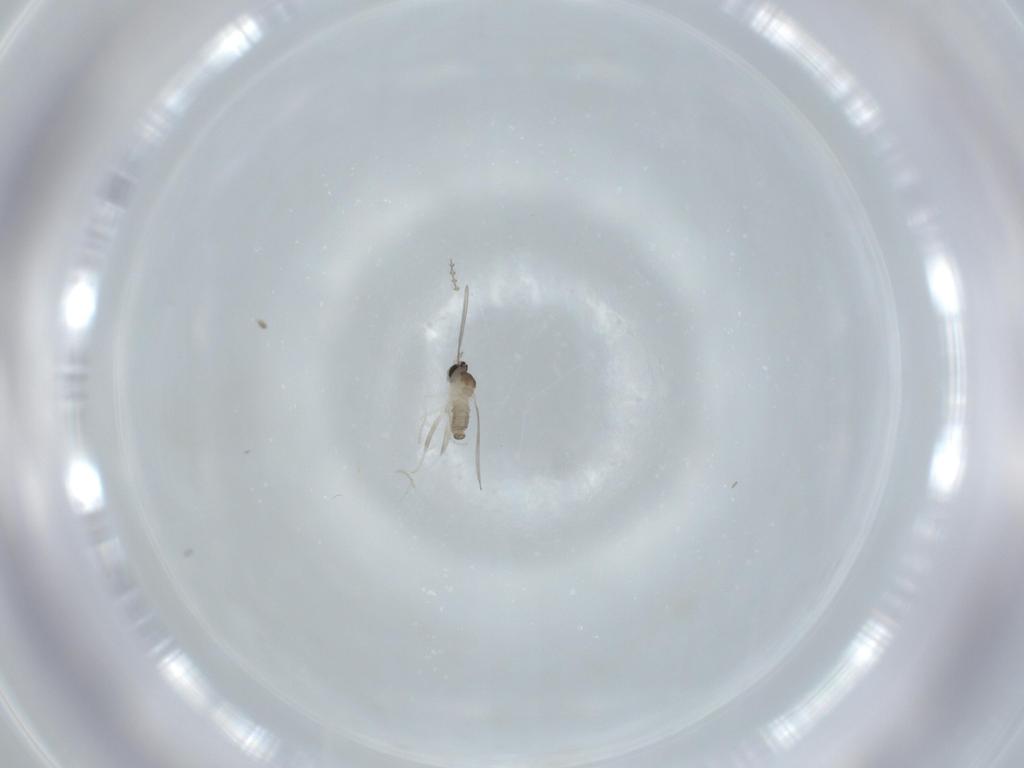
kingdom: Animalia
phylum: Arthropoda
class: Insecta
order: Diptera
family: Cecidomyiidae
